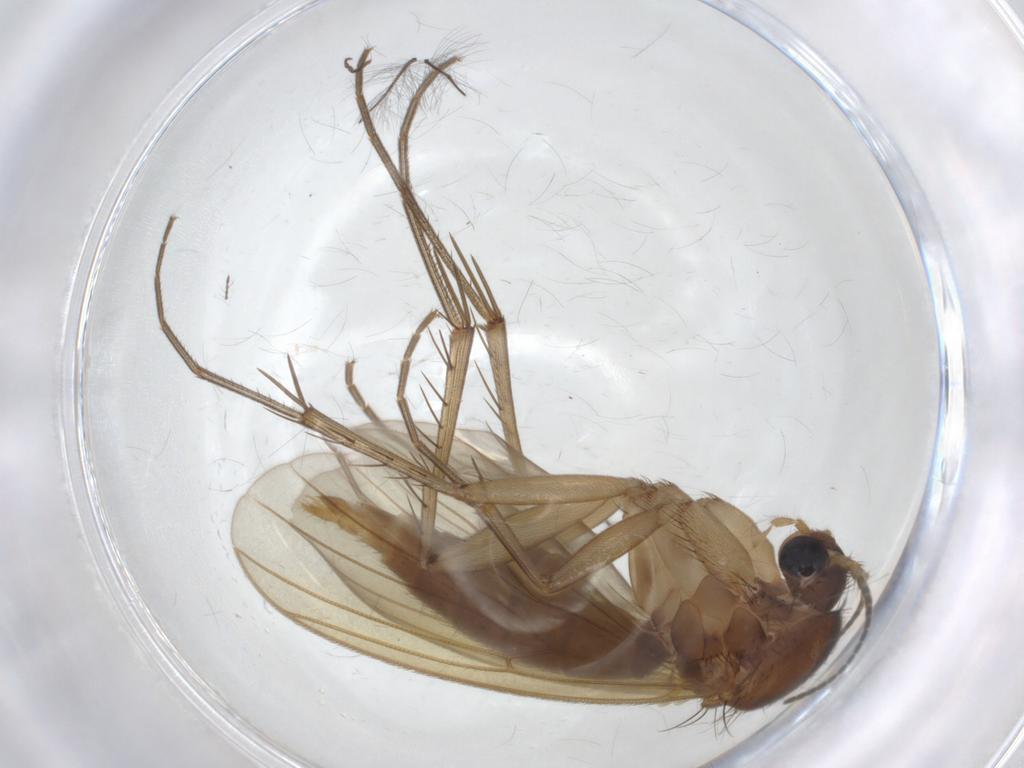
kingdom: Animalia
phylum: Arthropoda
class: Insecta
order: Diptera
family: Mycetophilidae
